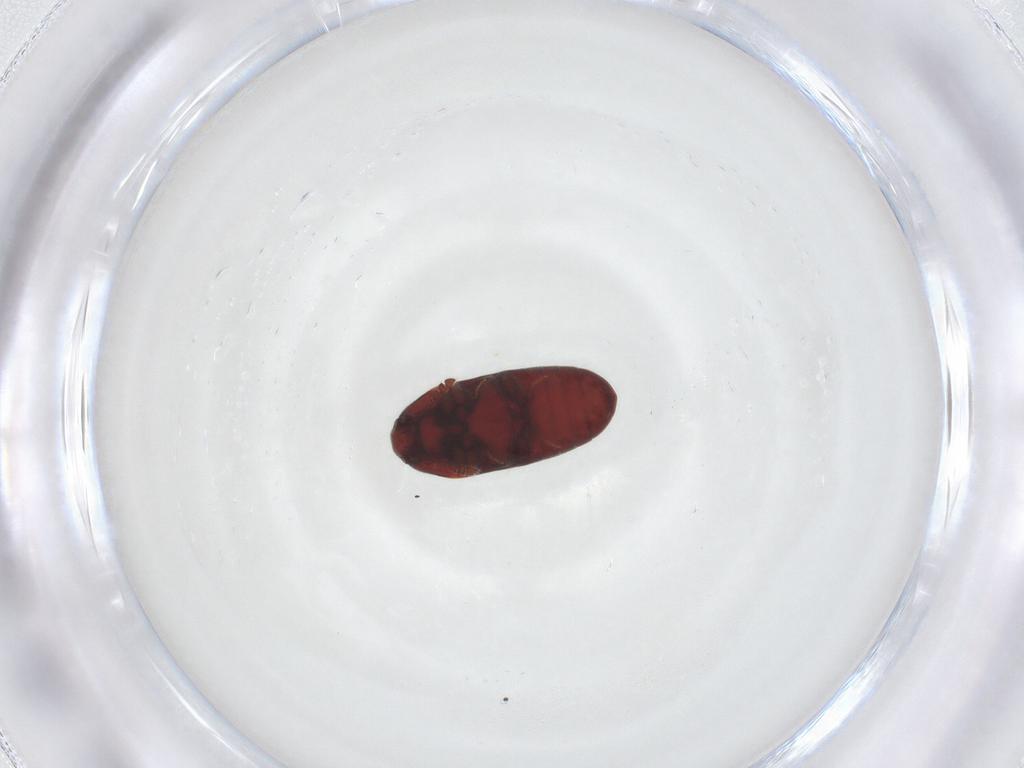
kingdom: Animalia
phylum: Arthropoda
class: Insecta
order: Coleoptera
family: Throscidae
